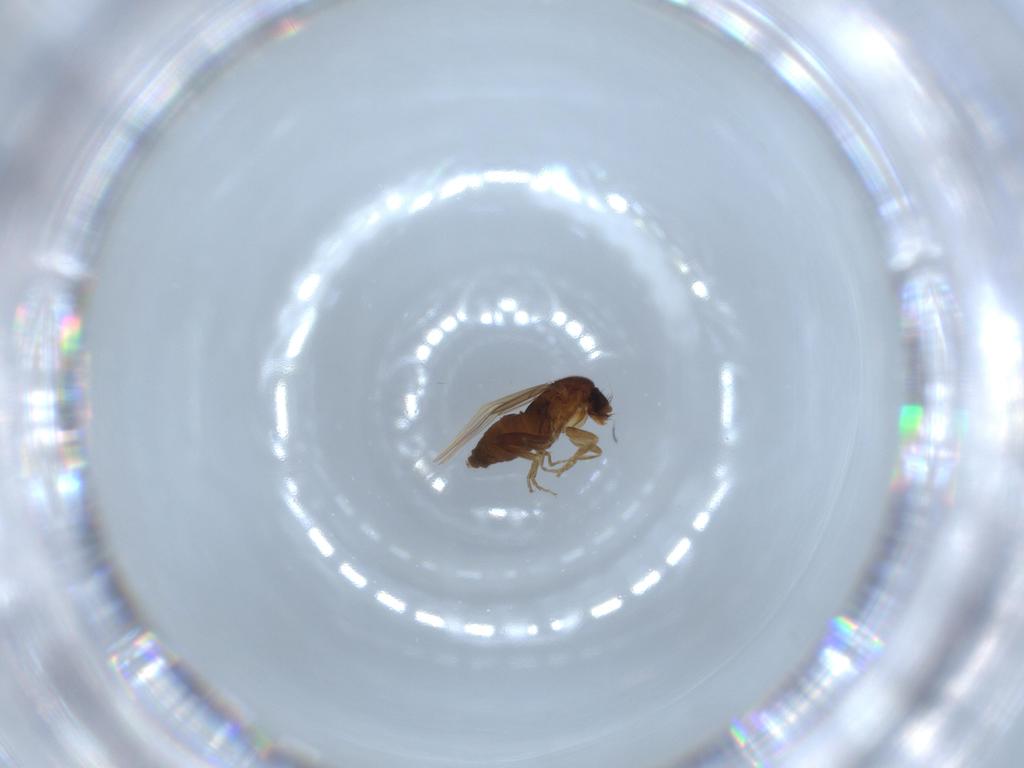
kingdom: Animalia
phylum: Arthropoda
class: Insecta
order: Diptera
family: Phoridae
